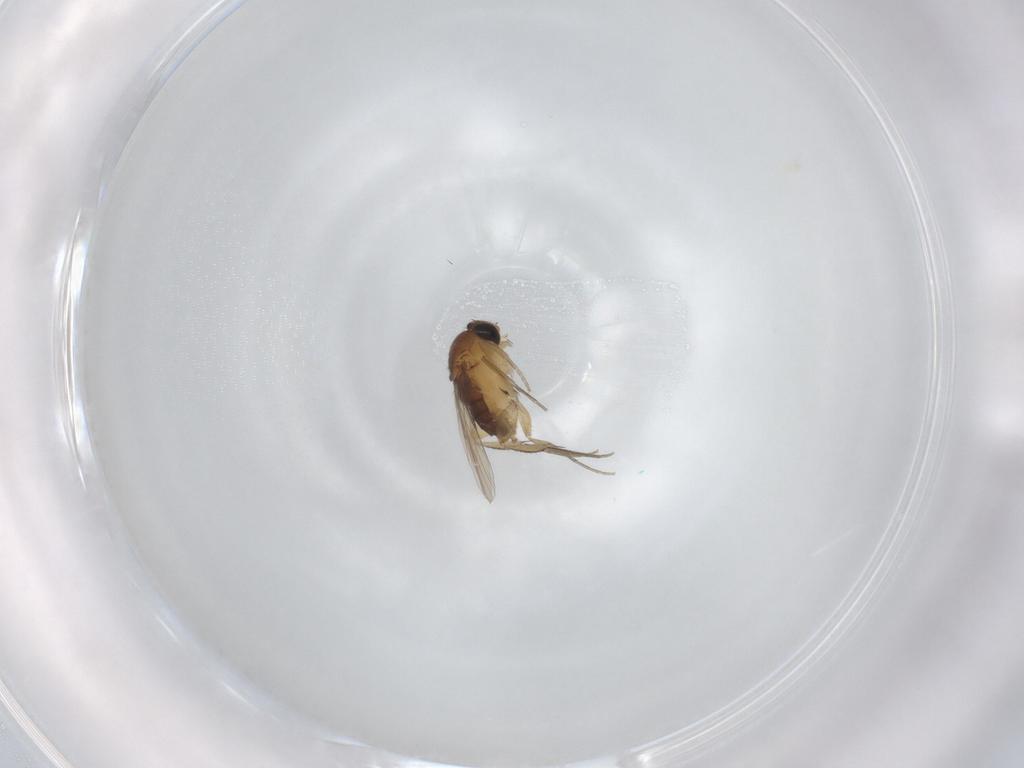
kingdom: Animalia
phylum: Arthropoda
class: Insecta
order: Diptera
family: Phoridae
